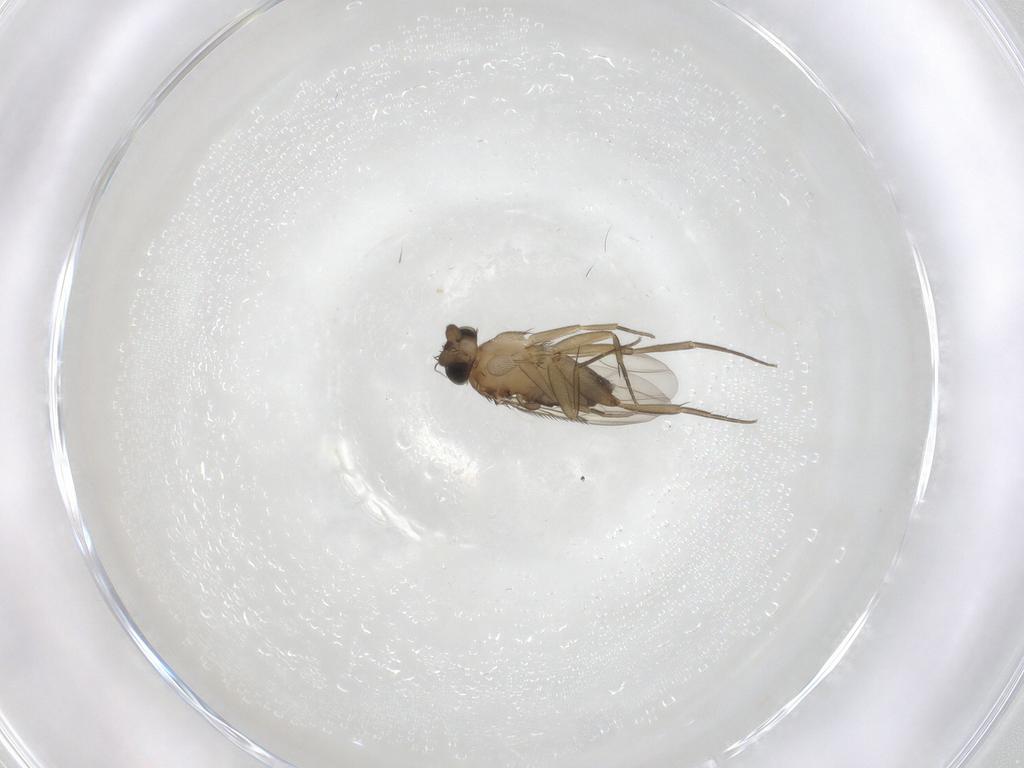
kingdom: Animalia
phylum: Arthropoda
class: Insecta
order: Diptera
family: Phoridae
